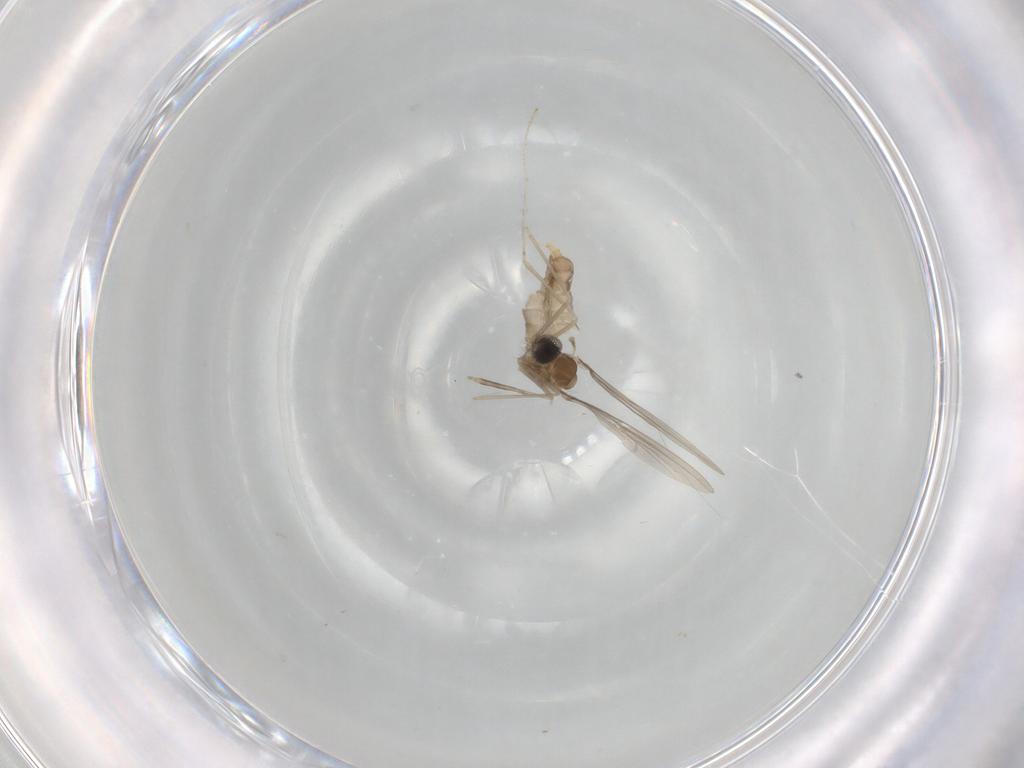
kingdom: Animalia
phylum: Arthropoda
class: Insecta
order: Diptera
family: Cecidomyiidae
